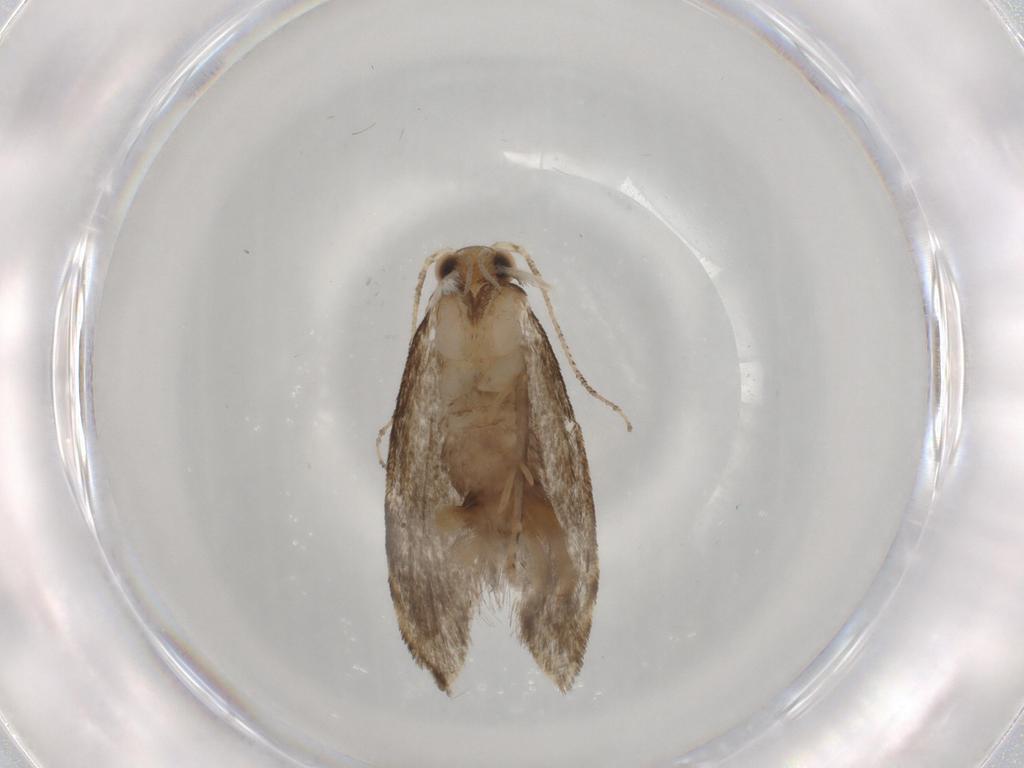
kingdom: Animalia
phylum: Arthropoda
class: Insecta
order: Lepidoptera
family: Tineidae
